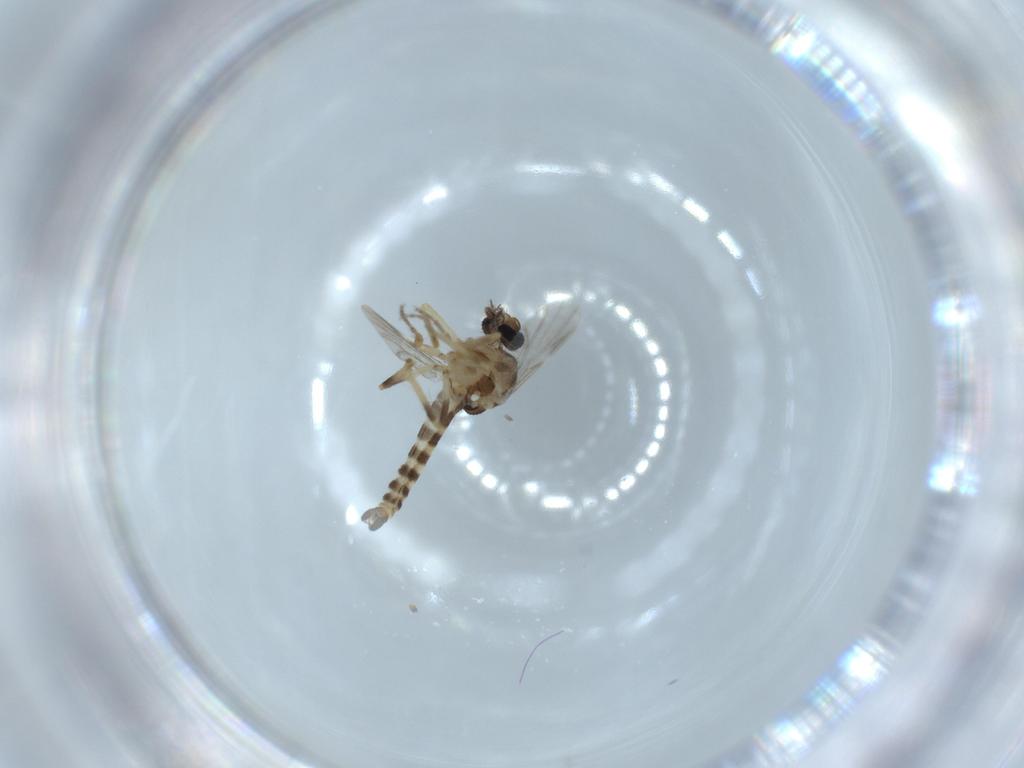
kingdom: Animalia
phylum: Arthropoda
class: Insecta
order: Diptera
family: Ceratopogonidae
